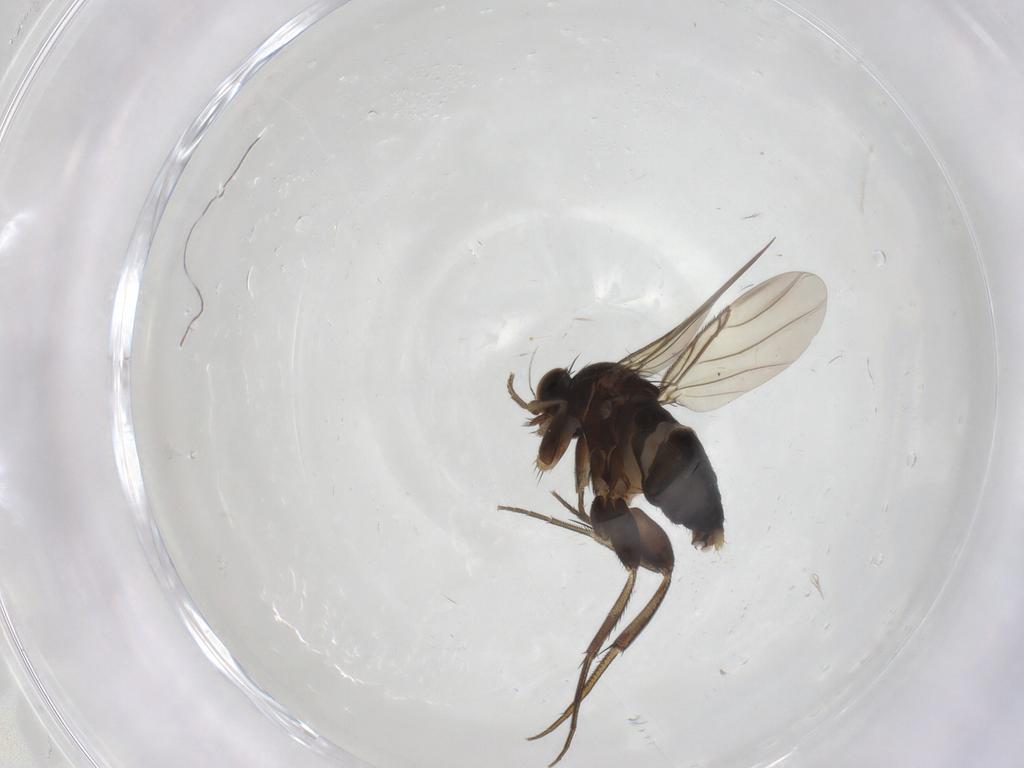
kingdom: Animalia
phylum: Arthropoda
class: Insecta
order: Diptera
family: Phoridae
